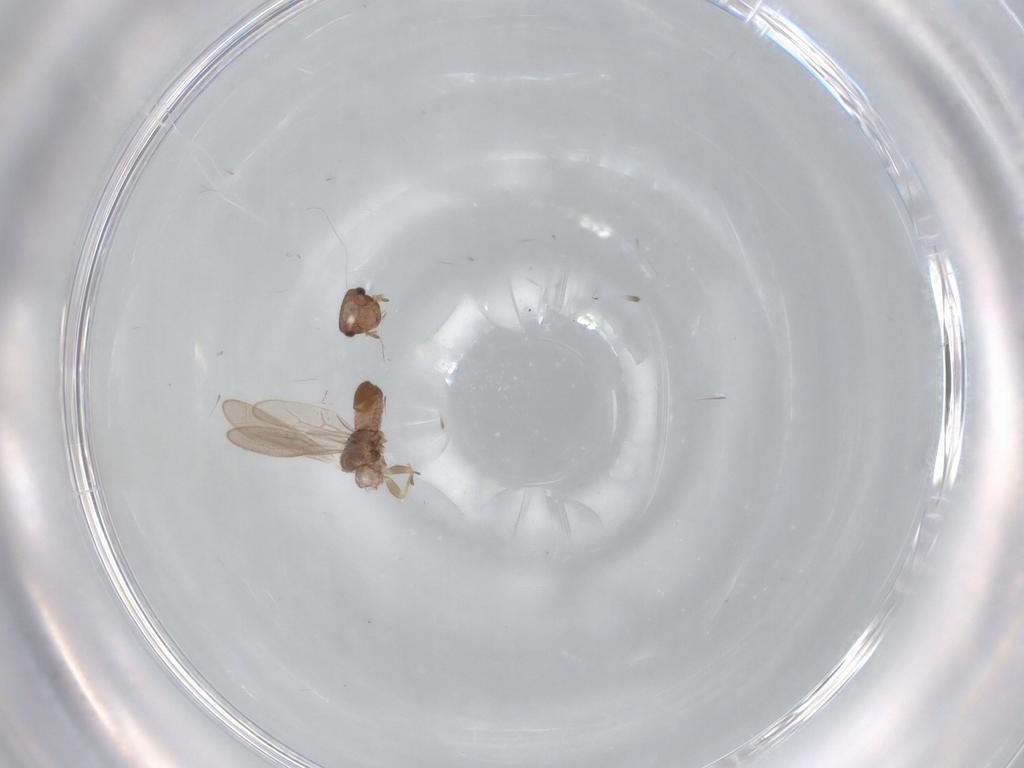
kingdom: Animalia
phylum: Arthropoda
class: Insecta
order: Psocodea
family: Archipsocidae
